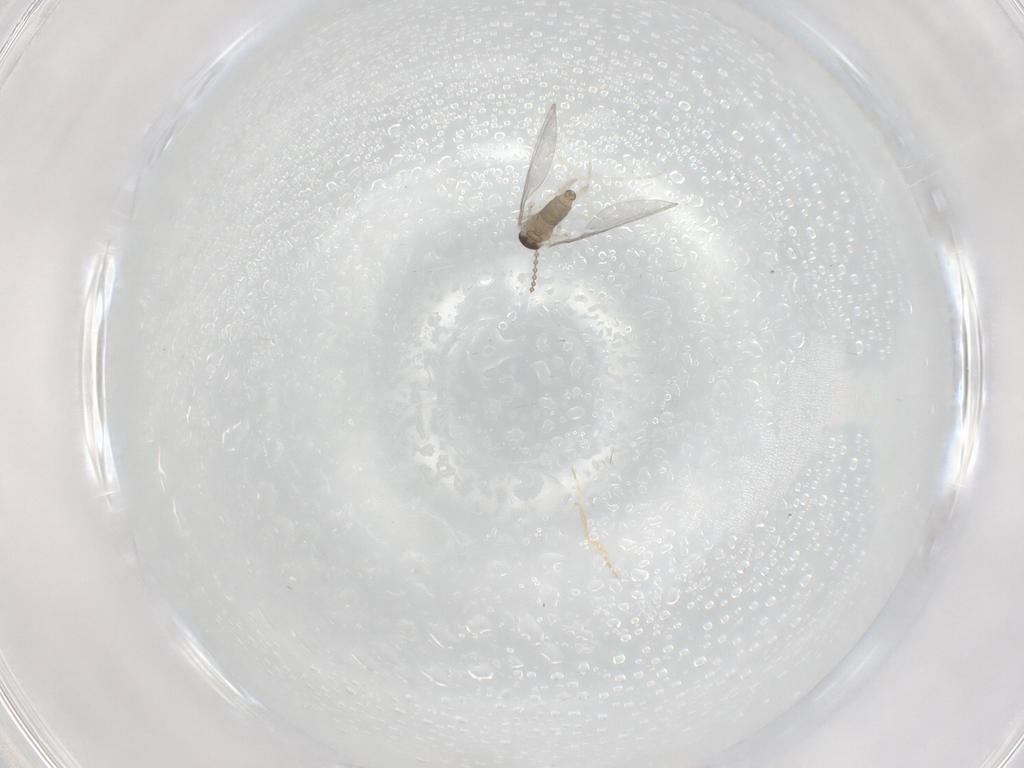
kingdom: Animalia
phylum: Arthropoda
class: Insecta
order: Diptera
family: Cecidomyiidae
